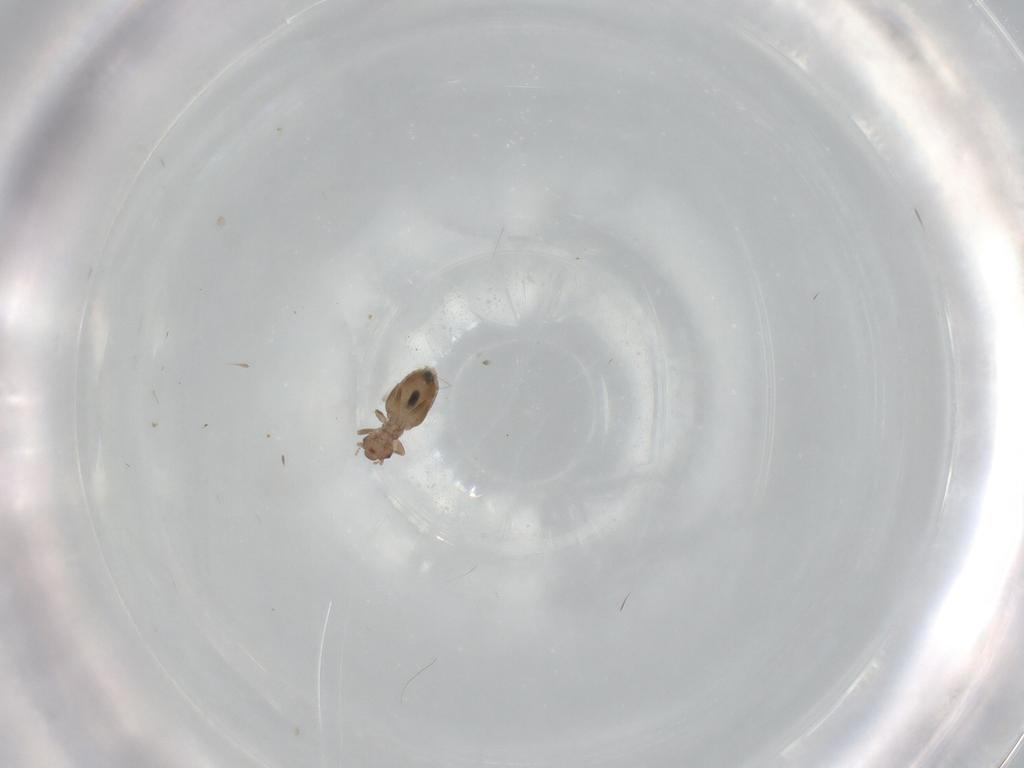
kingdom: Animalia
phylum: Arthropoda
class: Insecta
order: Psocodea
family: Liposcelididae
